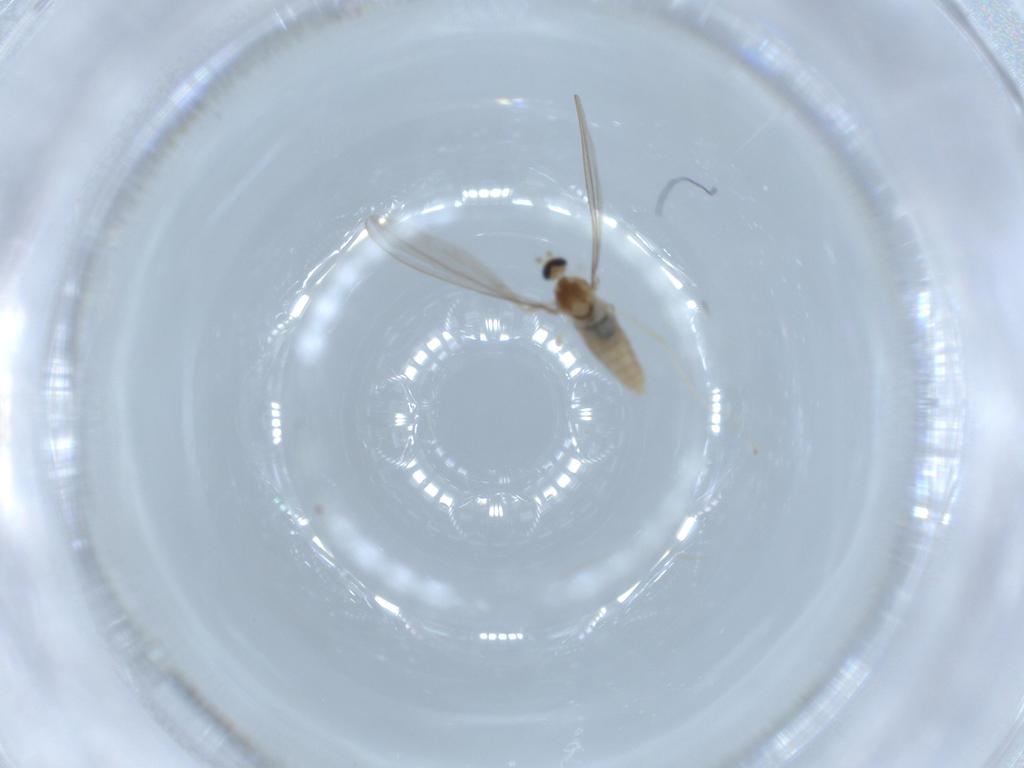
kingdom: Animalia
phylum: Arthropoda
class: Insecta
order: Diptera
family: Cecidomyiidae
